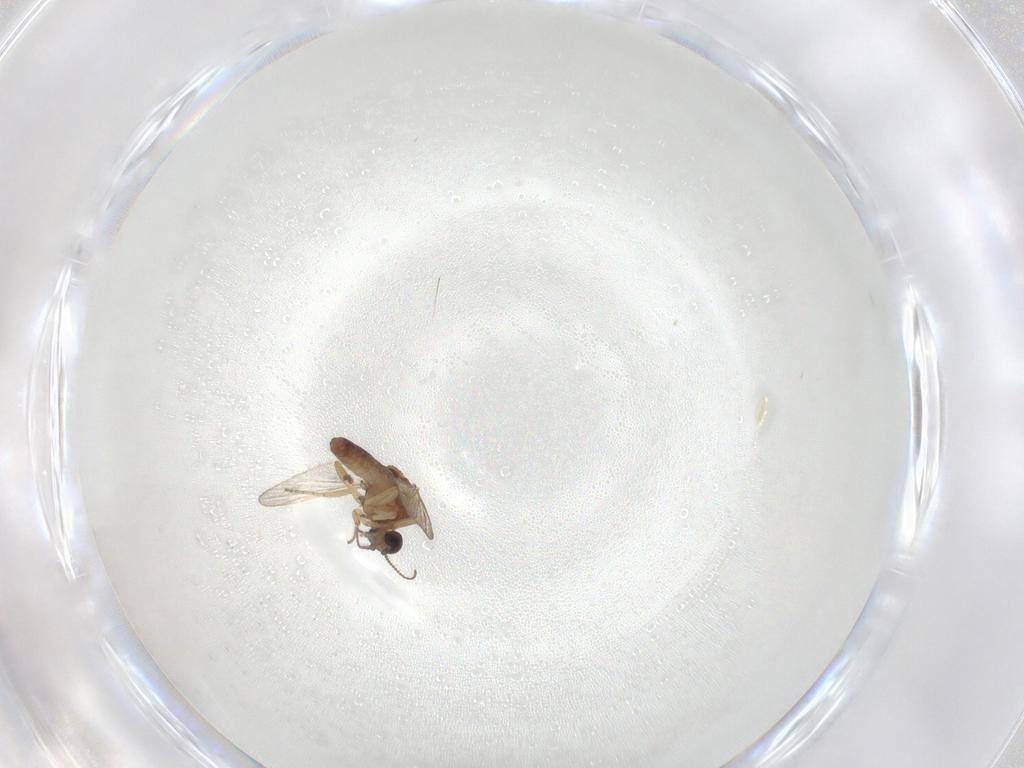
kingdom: Animalia
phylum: Arthropoda
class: Insecta
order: Diptera
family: Ceratopogonidae
